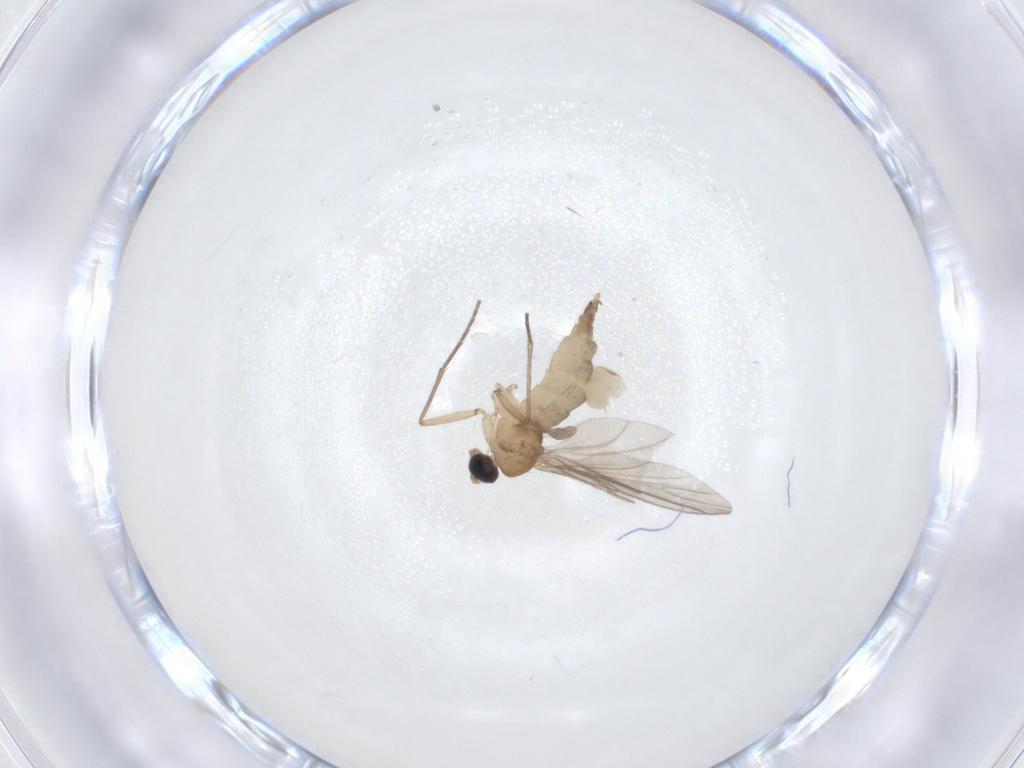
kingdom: Animalia
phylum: Arthropoda
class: Insecta
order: Diptera
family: Sciaridae
